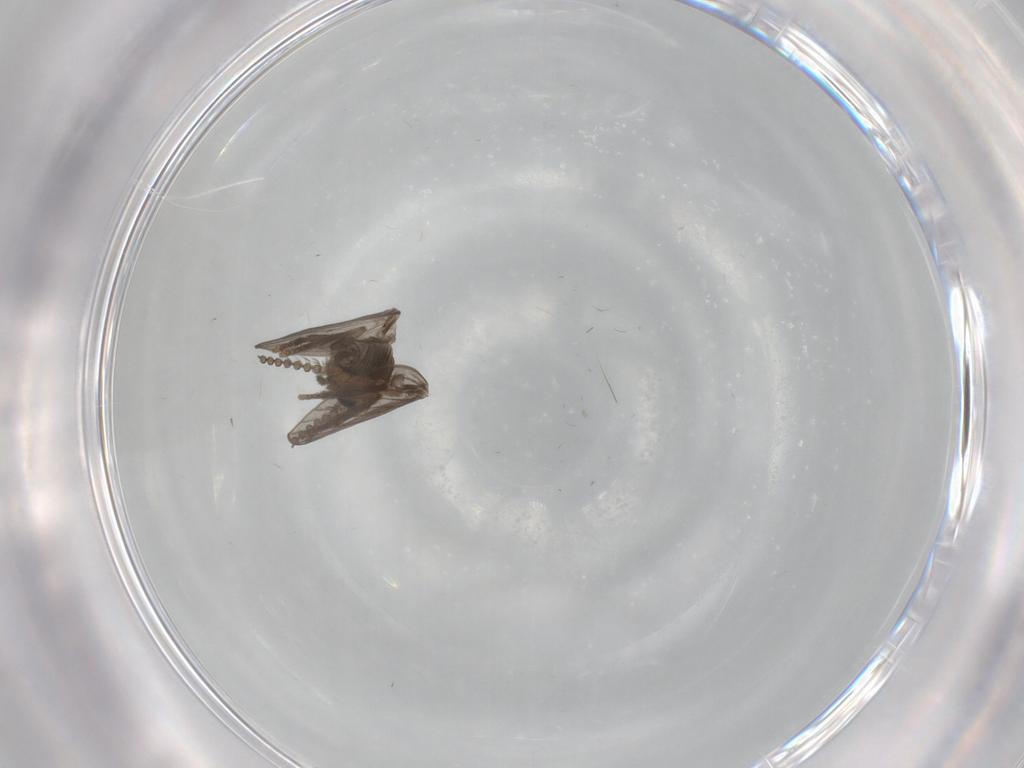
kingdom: Animalia
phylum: Arthropoda
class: Insecta
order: Diptera
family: Psychodidae
